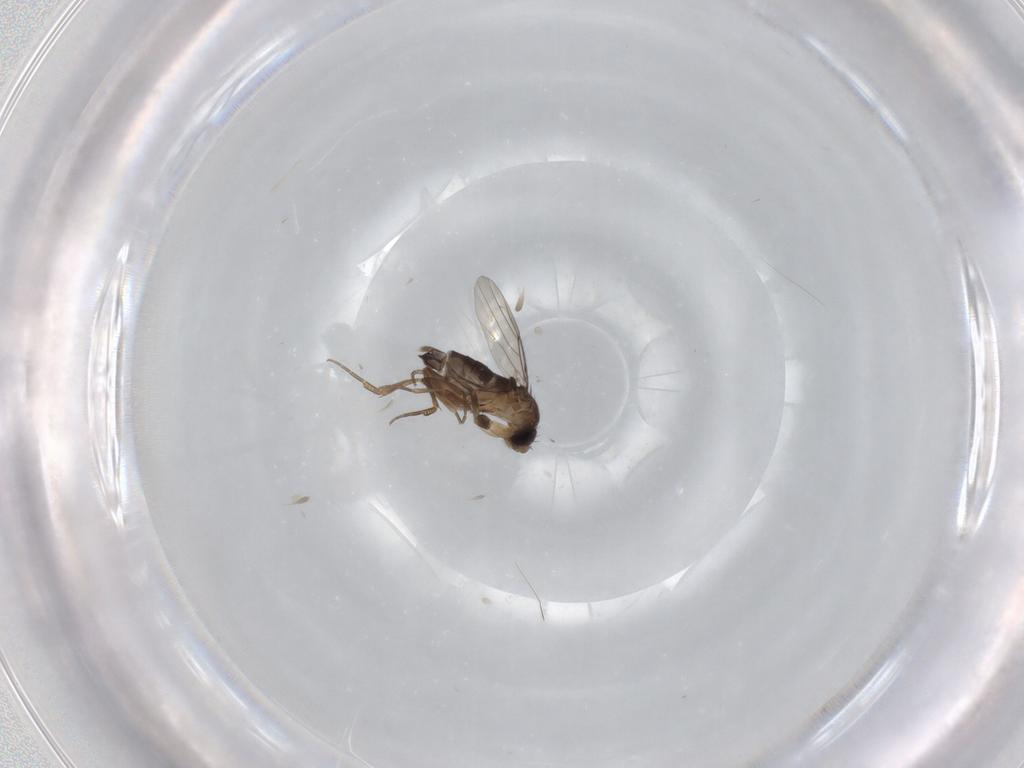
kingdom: Animalia
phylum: Arthropoda
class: Insecta
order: Diptera
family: Phoridae
